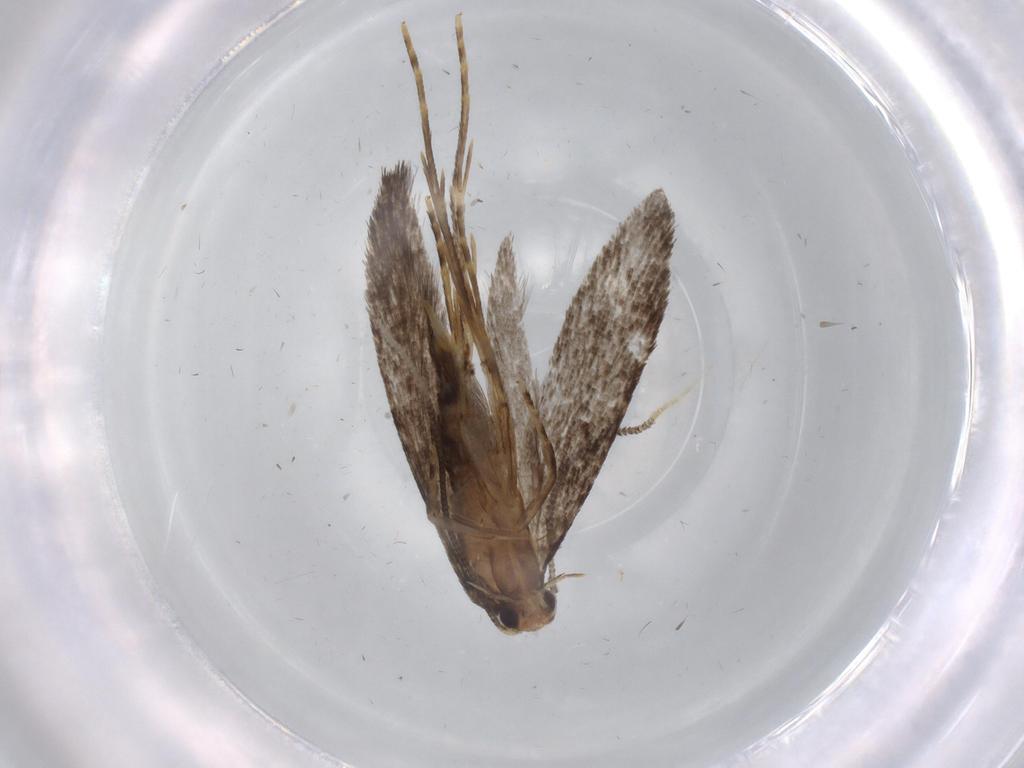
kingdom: Animalia
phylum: Arthropoda
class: Insecta
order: Lepidoptera
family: Tineidae
